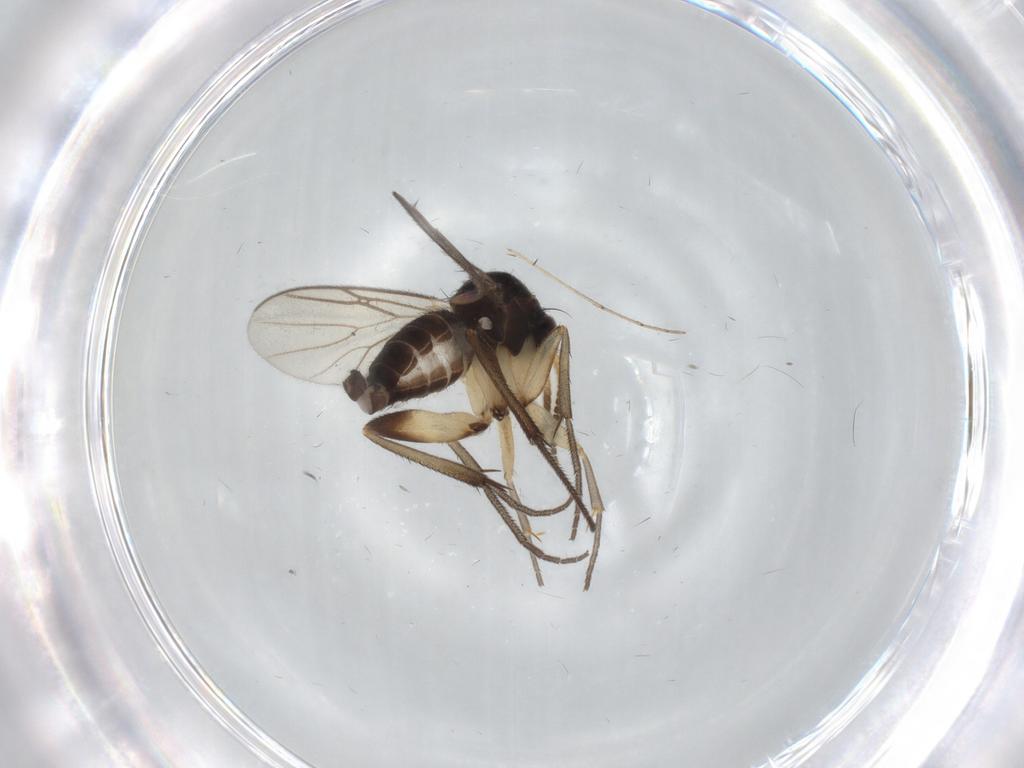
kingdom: Animalia
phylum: Arthropoda
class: Insecta
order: Diptera
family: Mycetophilidae
